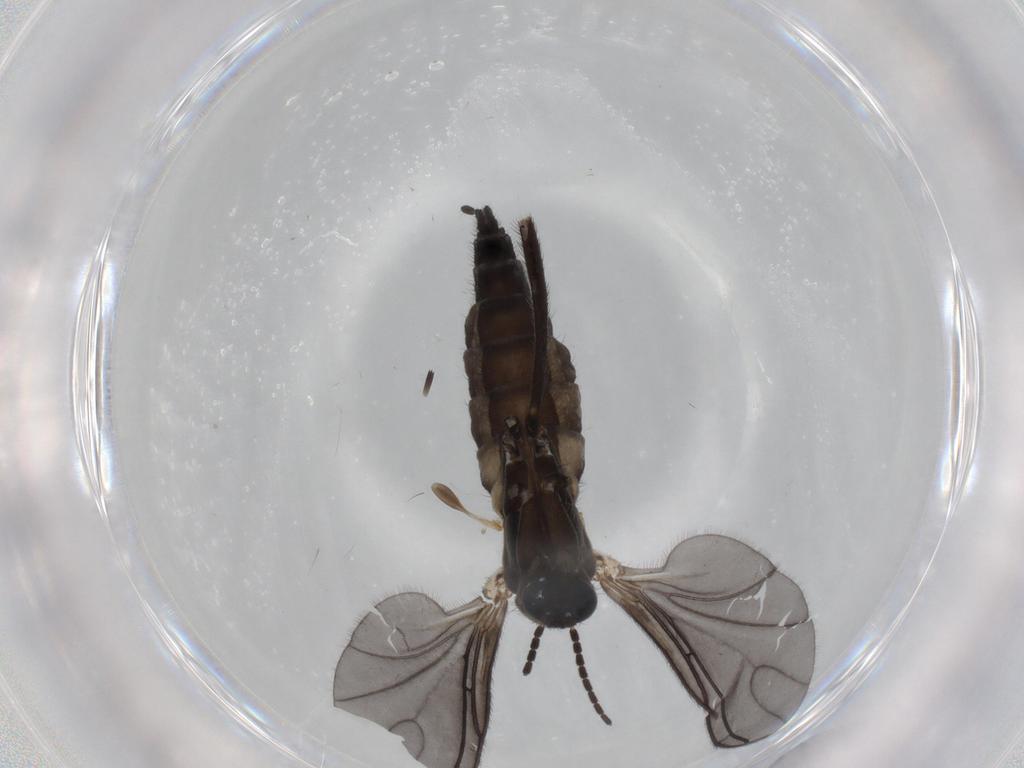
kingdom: Animalia
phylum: Arthropoda
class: Insecta
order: Diptera
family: Sciaridae
